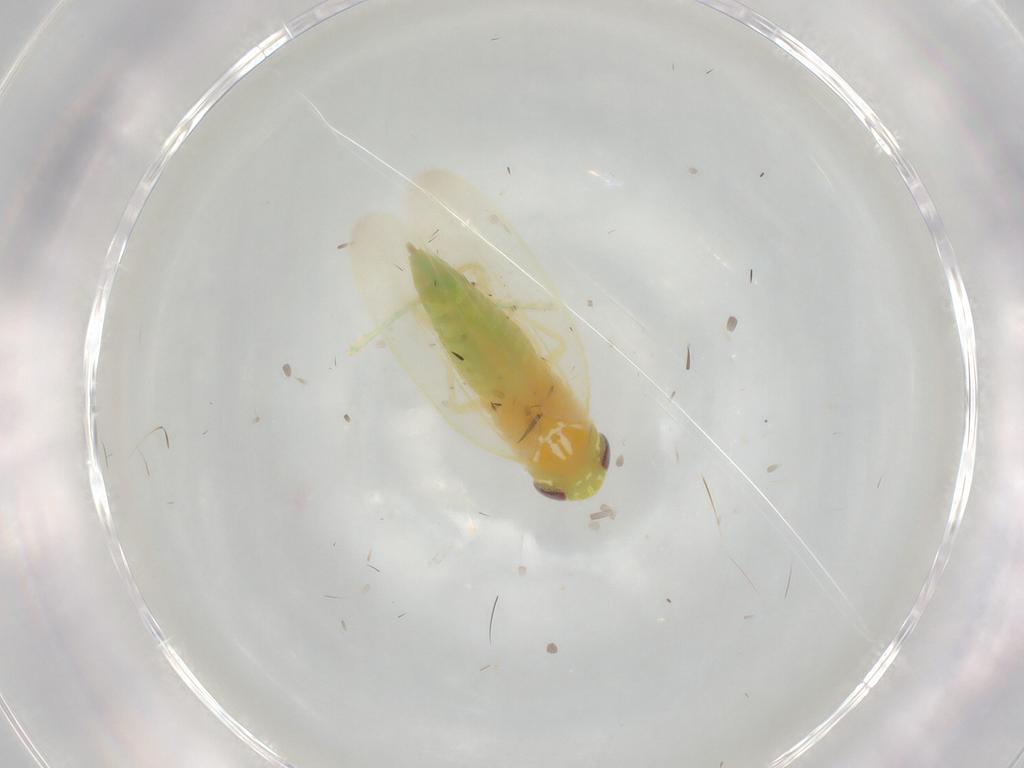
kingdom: Animalia
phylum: Arthropoda
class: Insecta
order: Hemiptera
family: Cicadellidae
